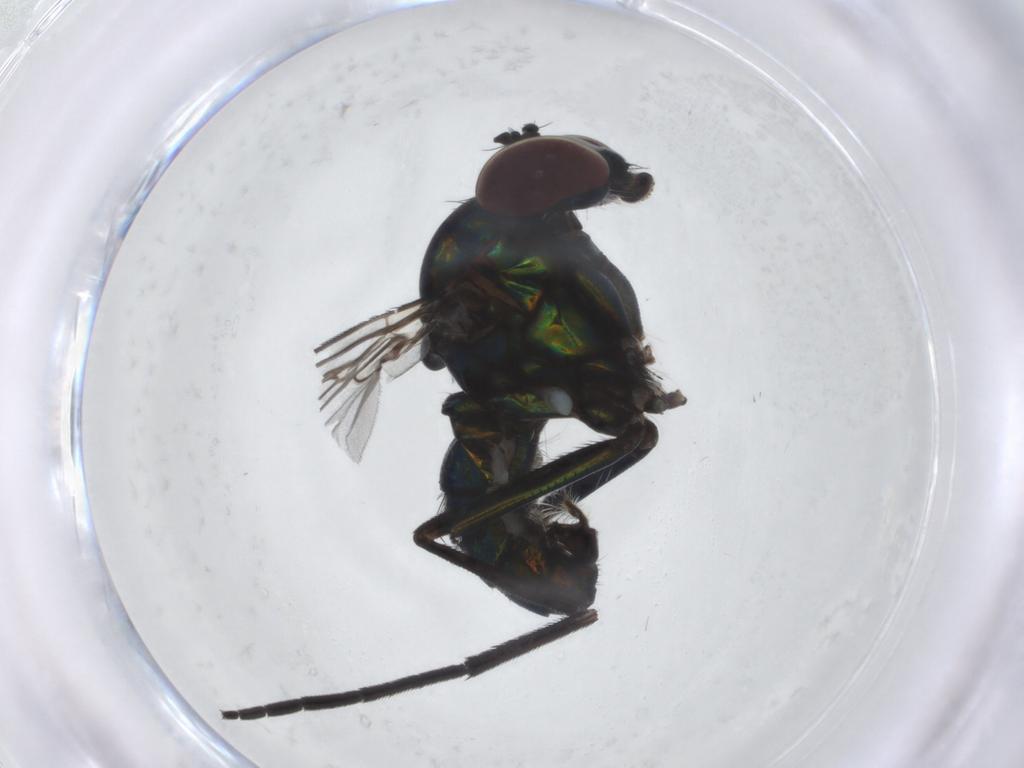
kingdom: Animalia
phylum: Arthropoda
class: Insecta
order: Diptera
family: Dolichopodidae
